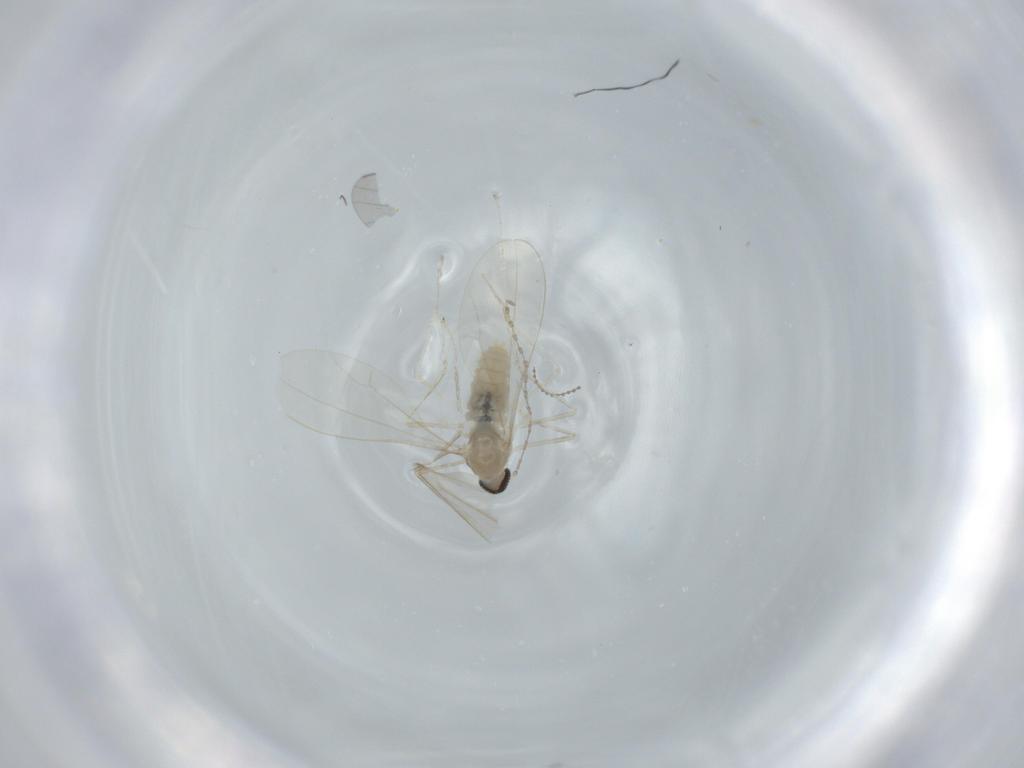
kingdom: Animalia
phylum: Arthropoda
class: Insecta
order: Diptera
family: Cecidomyiidae
